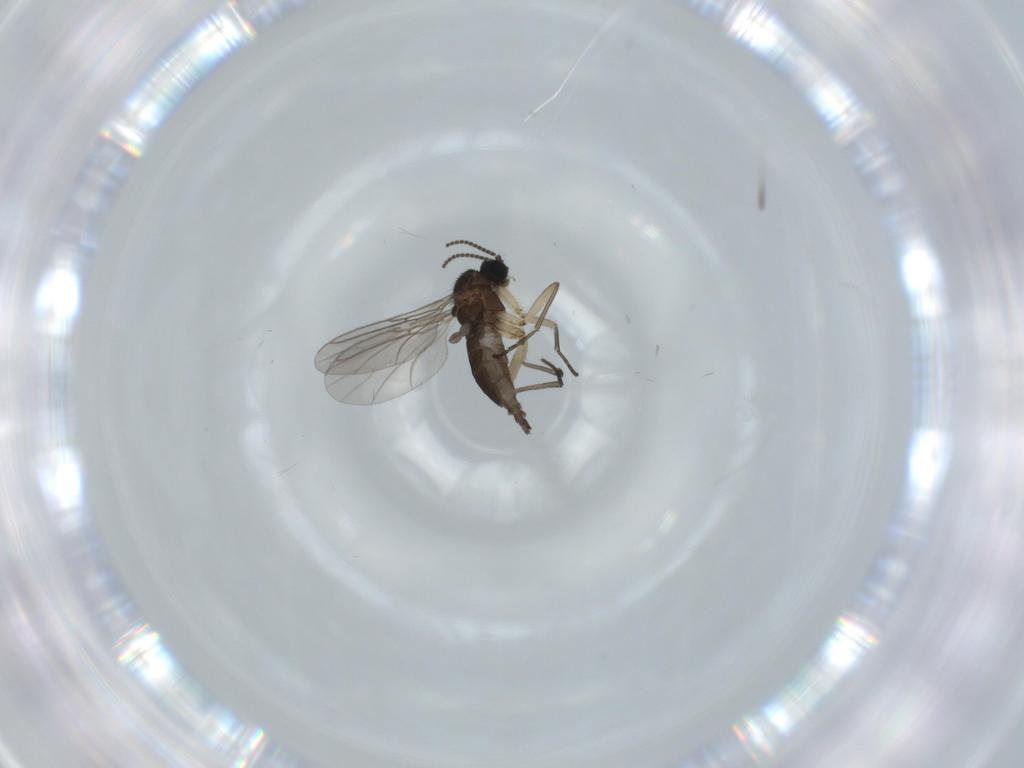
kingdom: Animalia
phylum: Arthropoda
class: Insecta
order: Diptera
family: Sciaridae
